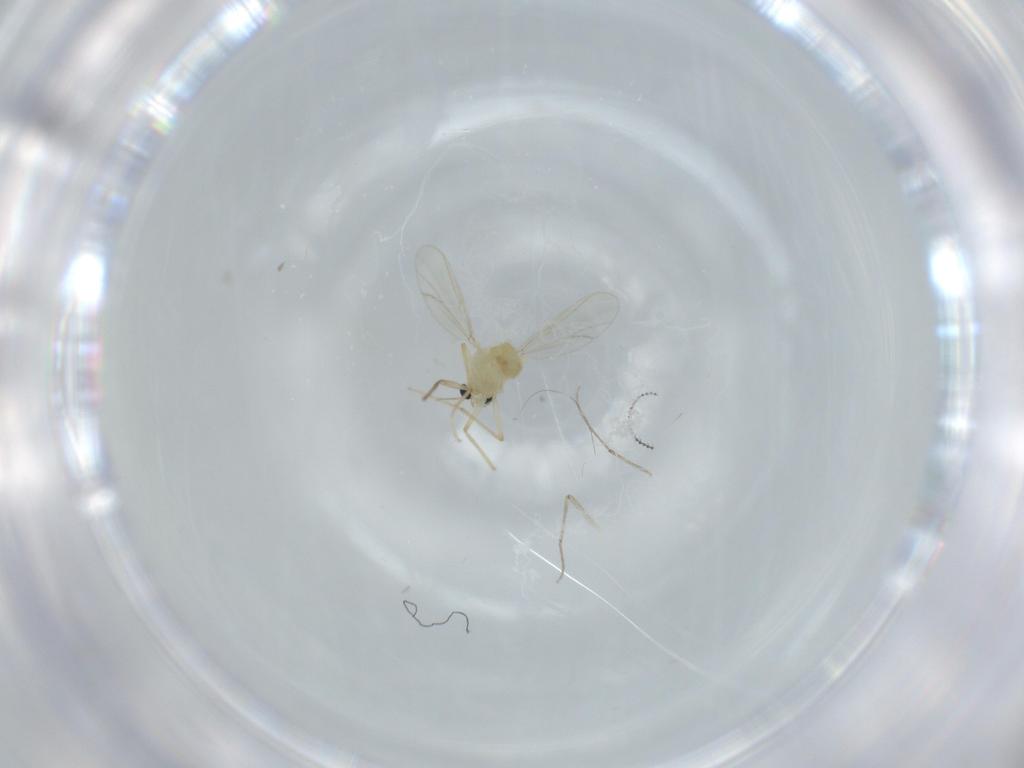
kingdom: Animalia
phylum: Arthropoda
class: Insecta
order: Diptera
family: Chironomidae
